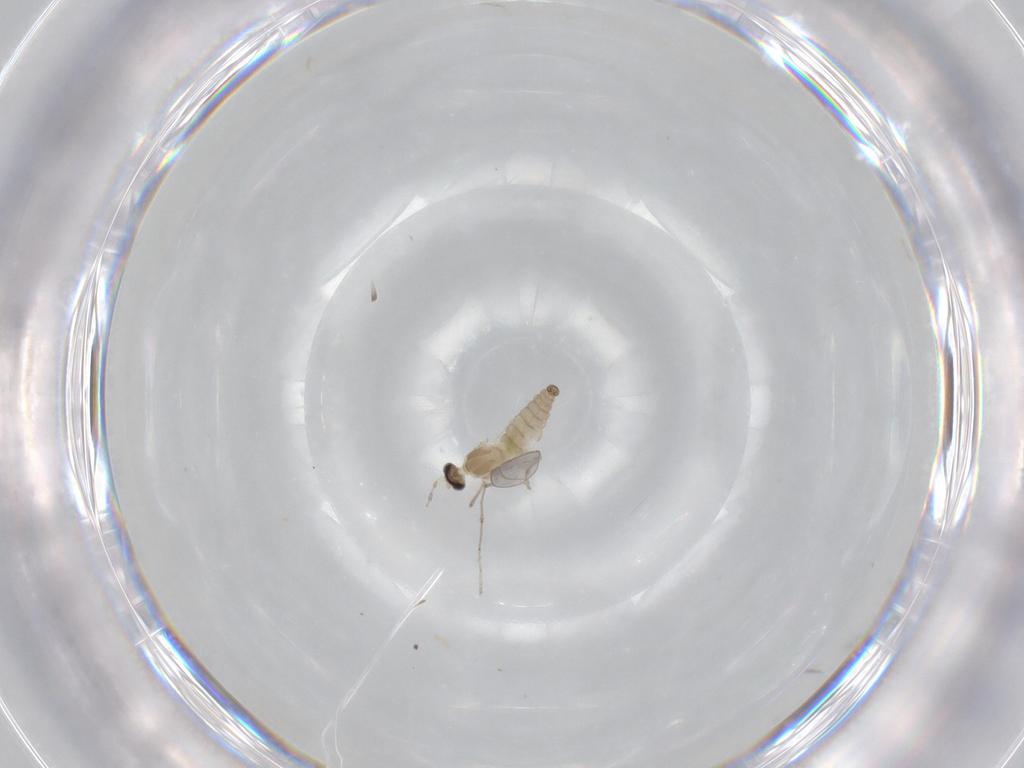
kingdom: Animalia
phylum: Arthropoda
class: Insecta
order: Diptera
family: Cecidomyiidae
